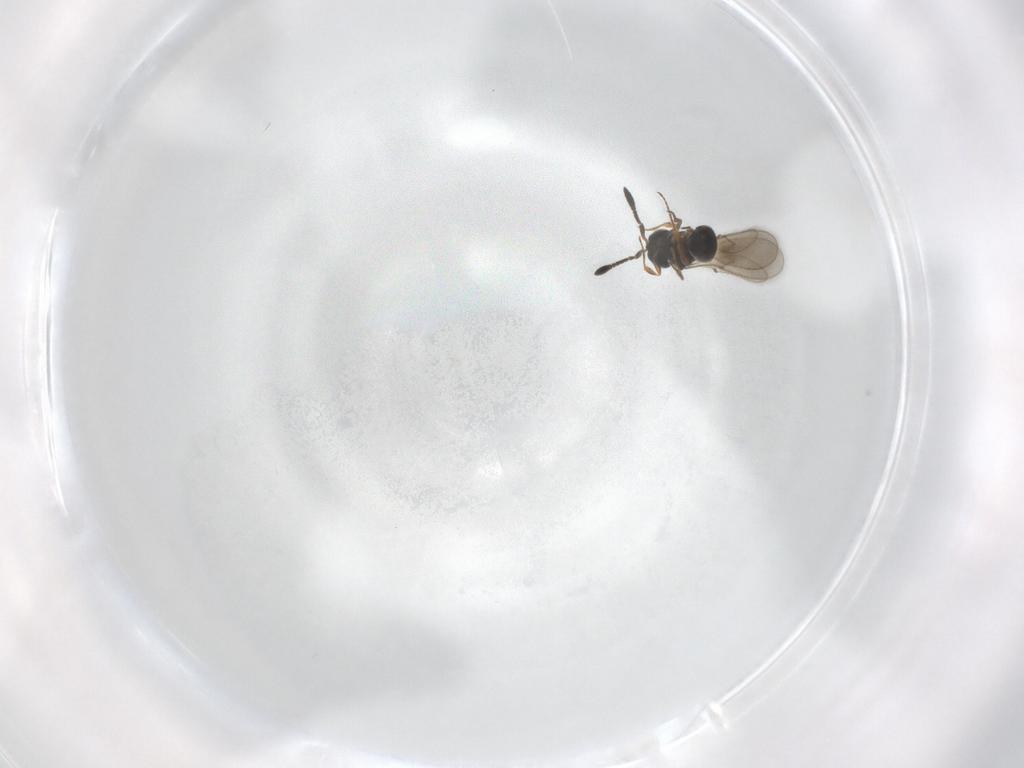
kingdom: Animalia
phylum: Arthropoda
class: Insecta
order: Hymenoptera
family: Scelionidae
